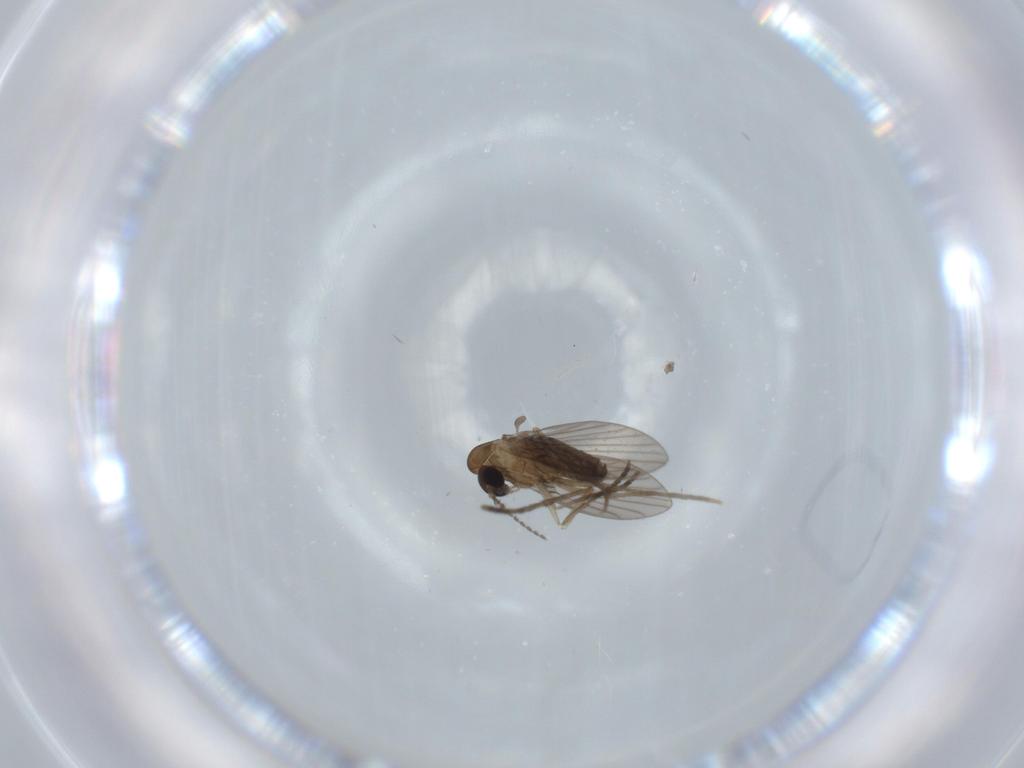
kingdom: Animalia
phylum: Arthropoda
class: Insecta
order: Diptera
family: Psychodidae
